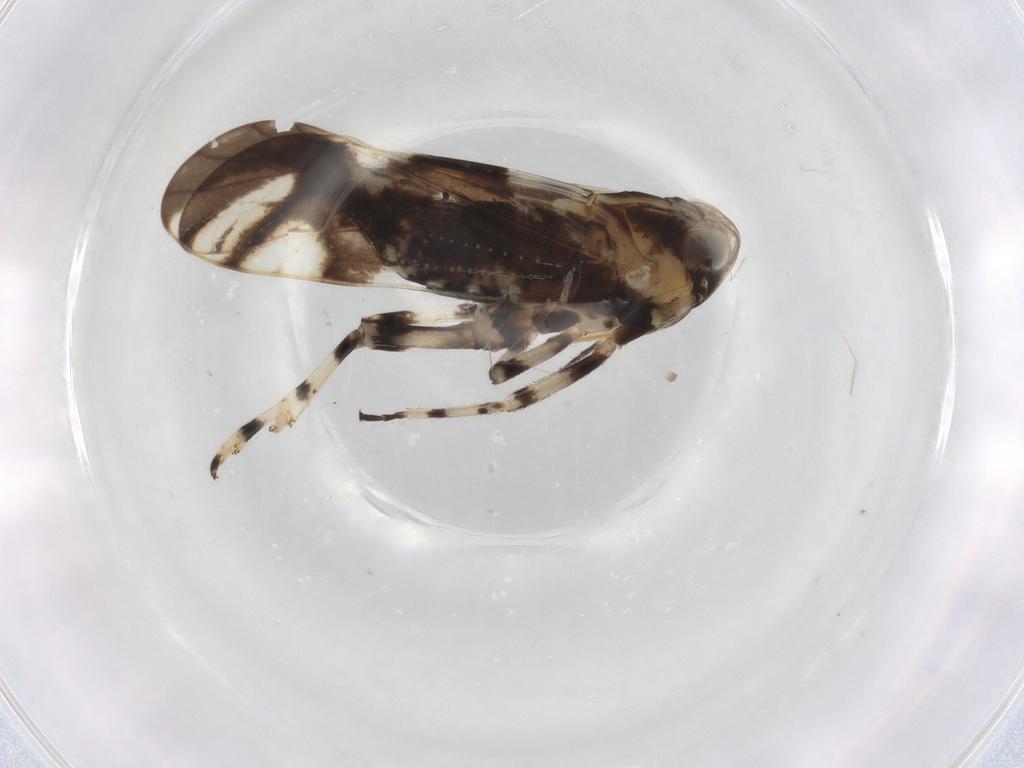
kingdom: Animalia
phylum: Arthropoda
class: Insecta
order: Hemiptera
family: Delphacidae
